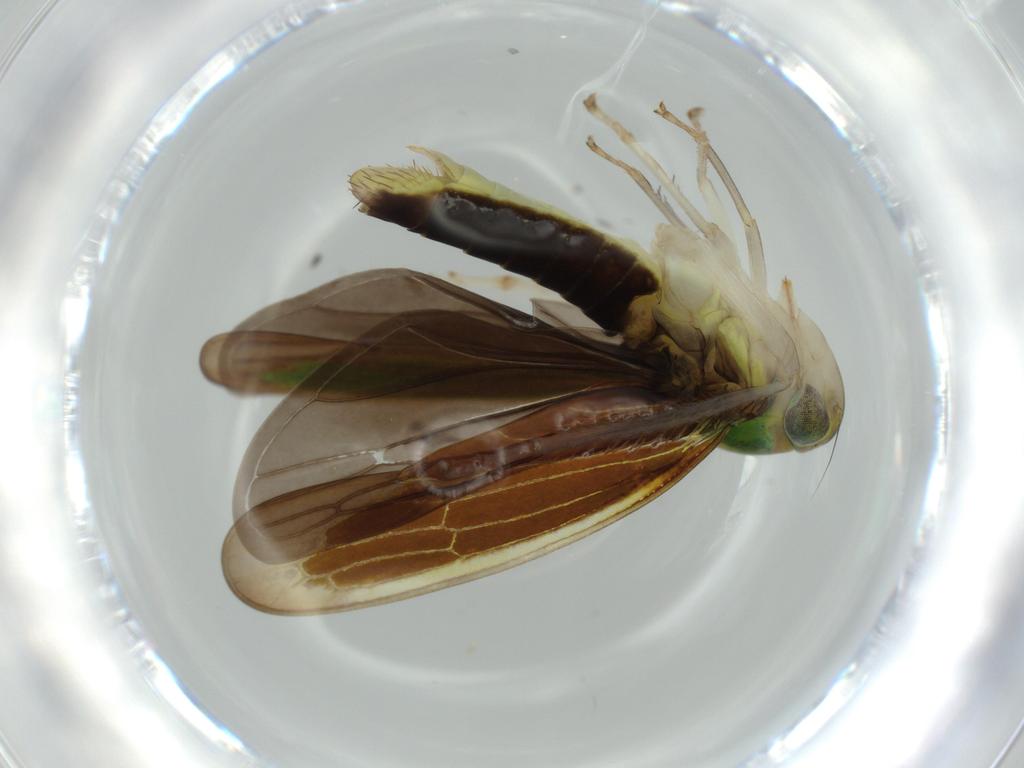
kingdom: Animalia
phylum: Arthropoda
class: Insecta
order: Hemiptera
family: Cicadellidae
